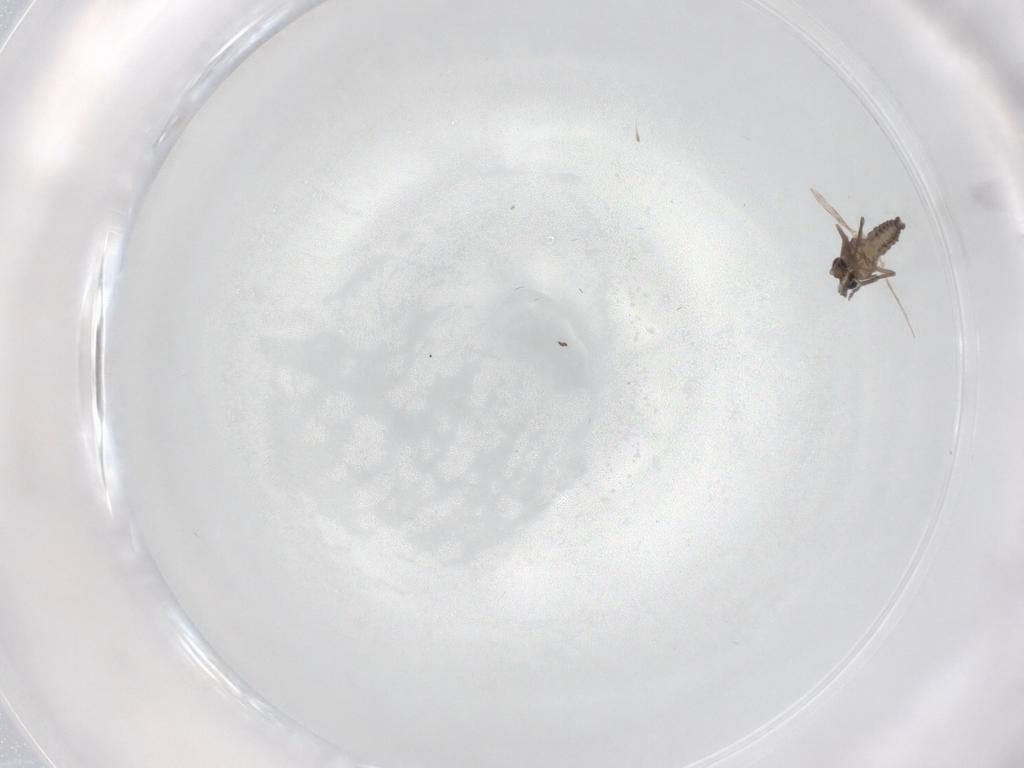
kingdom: Animalia
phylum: Arthropoda
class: Insecta
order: Diptera
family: Ceratopogonidae
